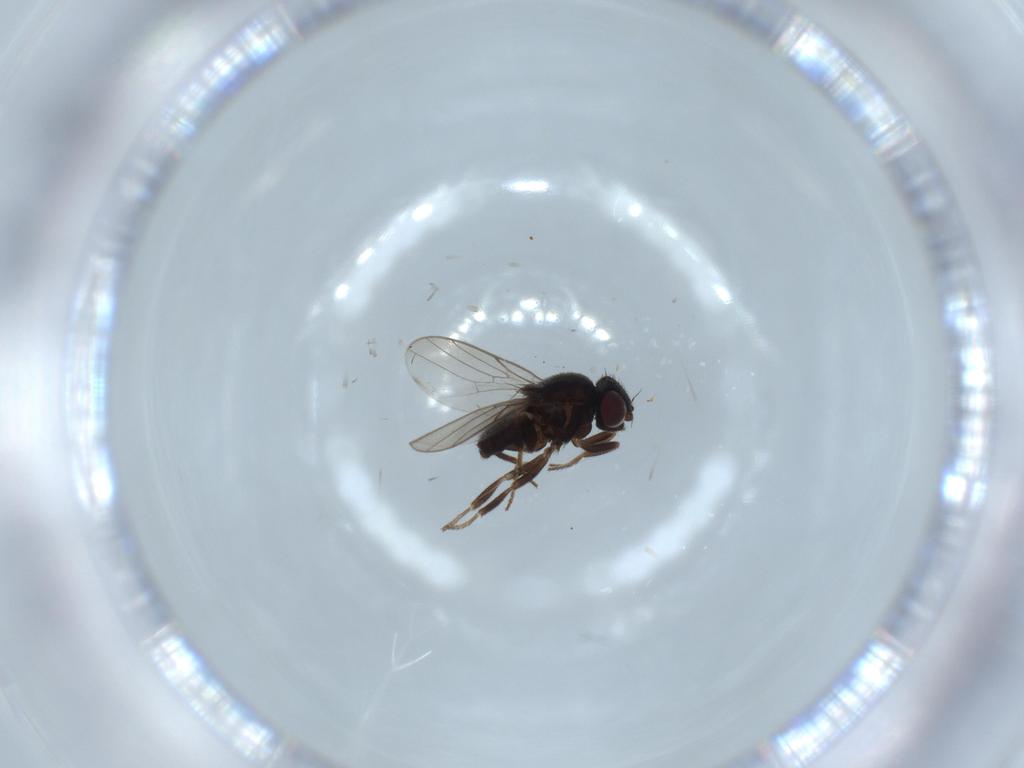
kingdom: Animalia
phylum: Arthropoda
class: Insecta
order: Diptera
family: Chloropidae
